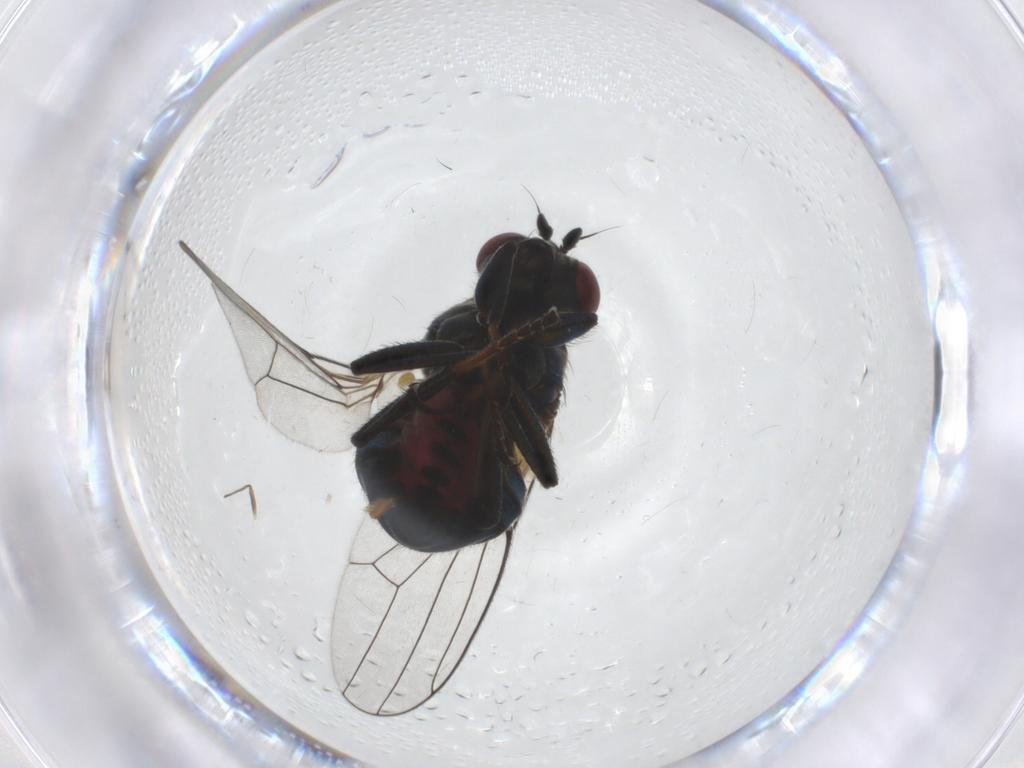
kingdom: Animalia
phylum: Arthropoda
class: Insecta
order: Diptera
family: Ephydridae
